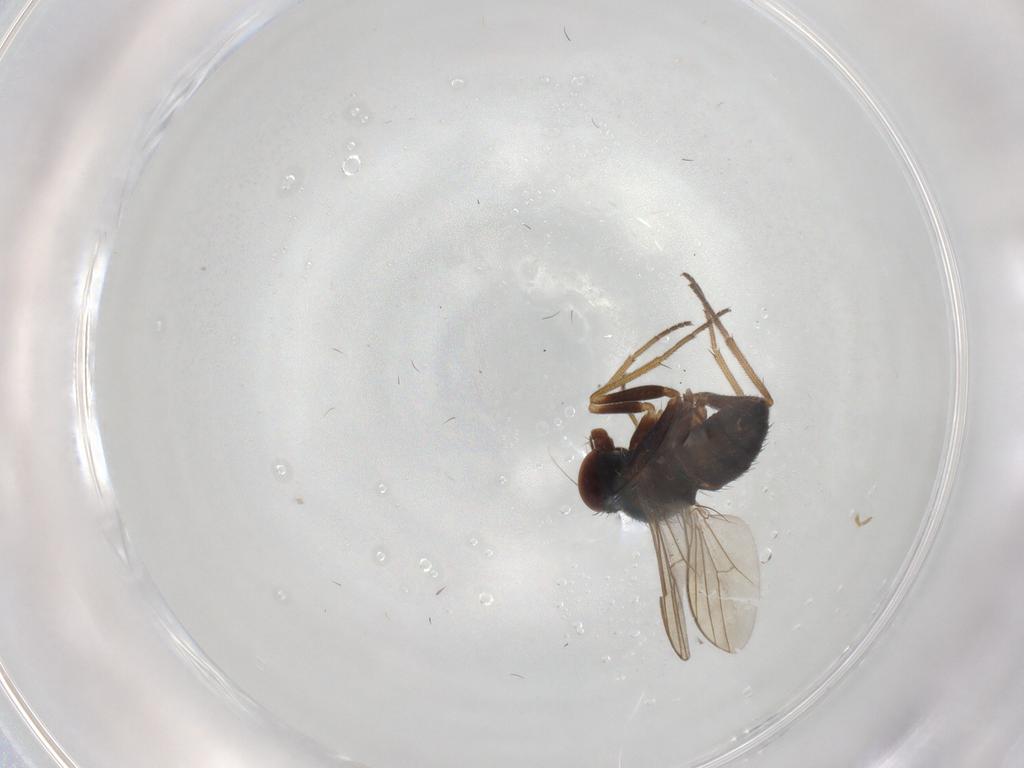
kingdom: Animalia
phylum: Arthropoda
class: Insecta
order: Diptera
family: Dolichopodidae
